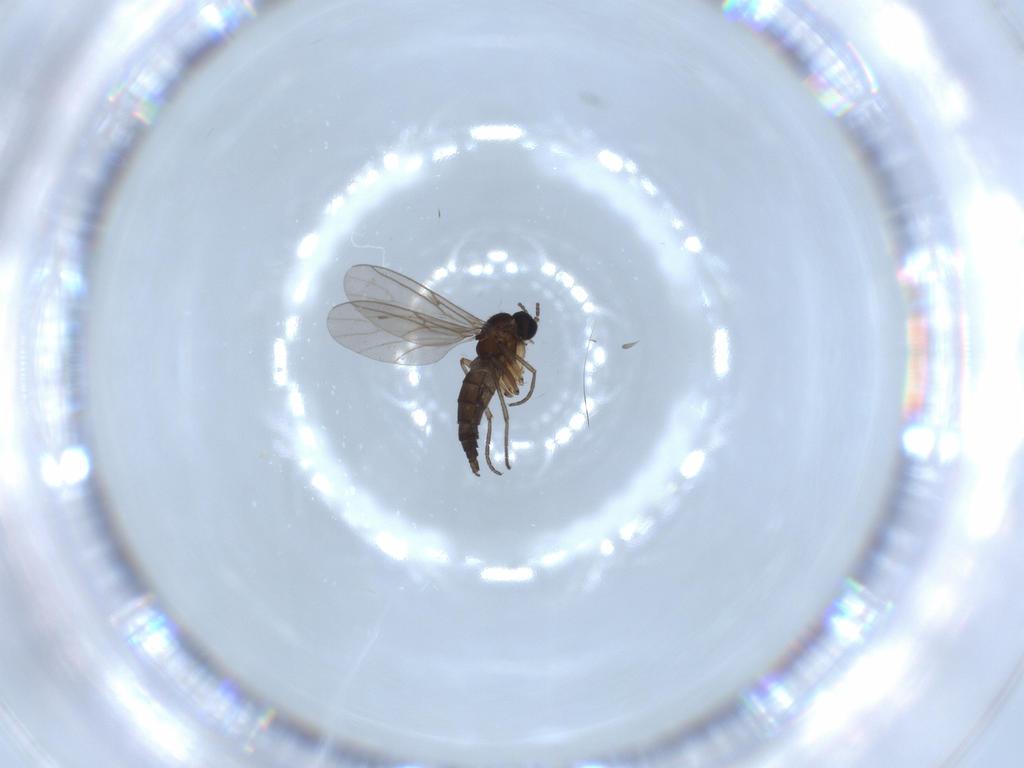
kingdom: Animalia
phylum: Arthropoda
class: Insecta
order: Diptera
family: Sciaridae
